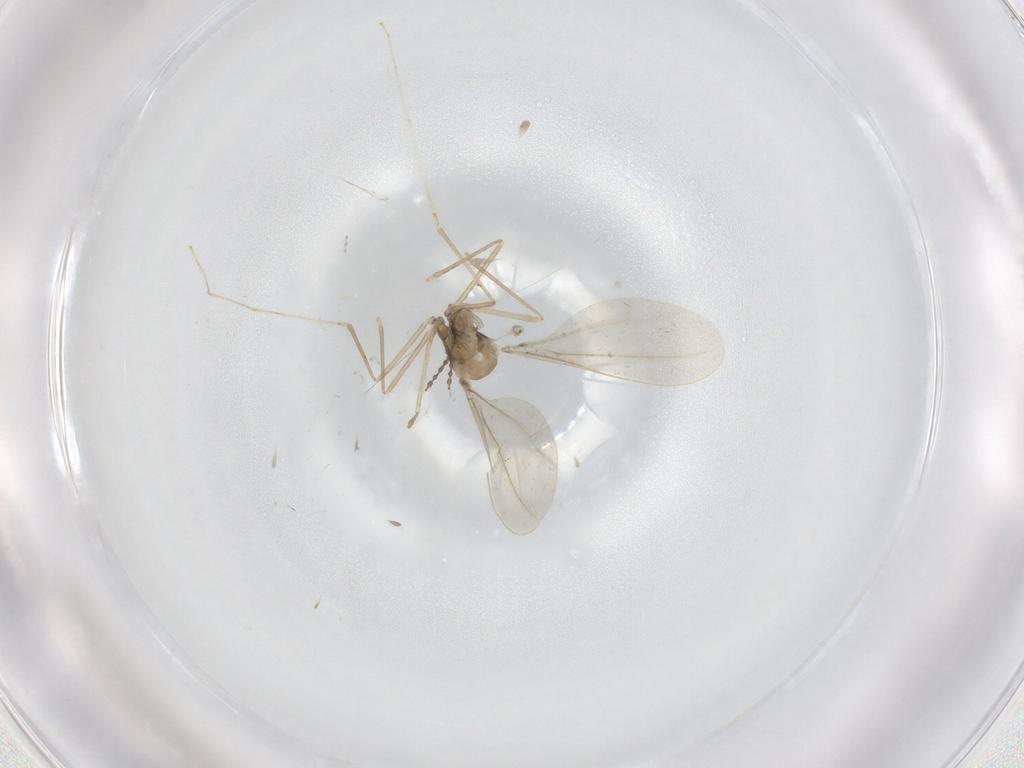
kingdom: Animalia
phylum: Arthropoda
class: Insecta
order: Diptera
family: Cecidomyiidae
